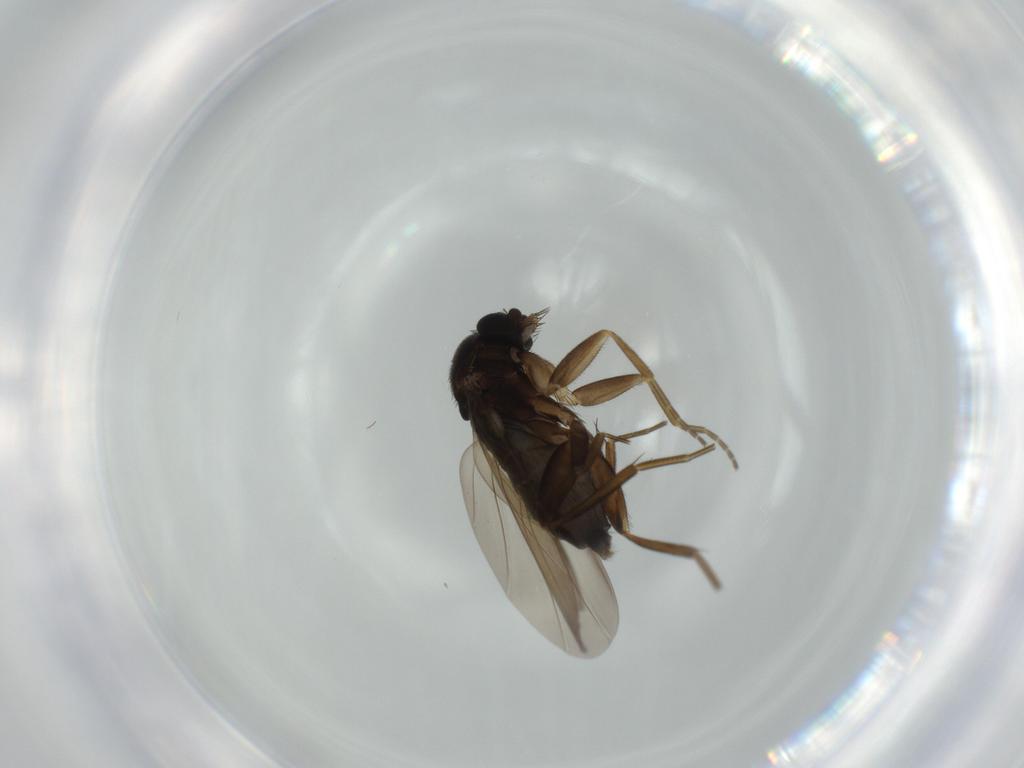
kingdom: Animalia
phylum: Arthropoda
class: Insecta
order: Diptera
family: Phoridae
